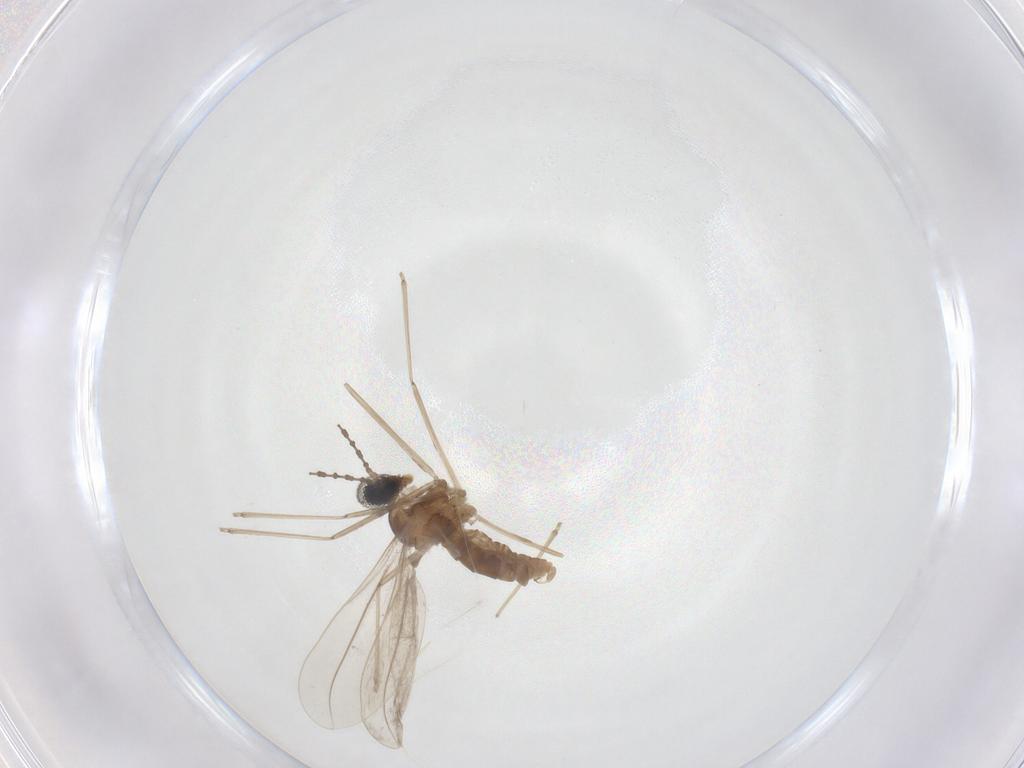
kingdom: Animalia
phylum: Arthropoda
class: Insecta
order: Diptera
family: Cecidomyiidae
